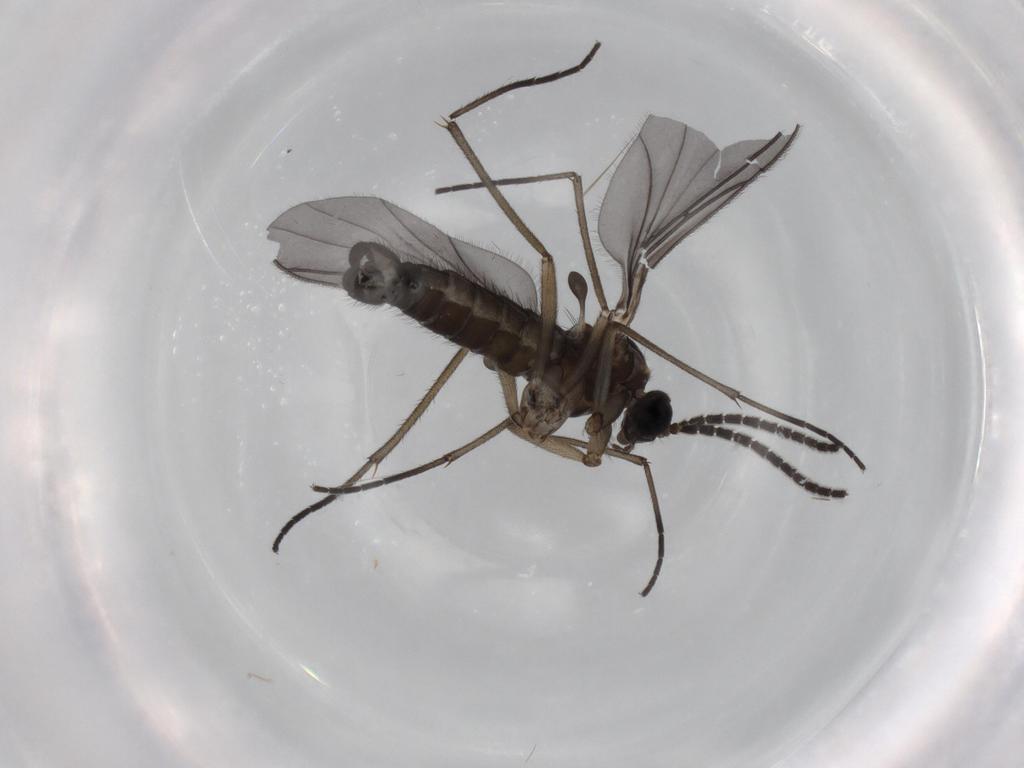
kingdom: Animalia
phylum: Arthropoda
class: Insecta
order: Diptera
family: Sciaridae
